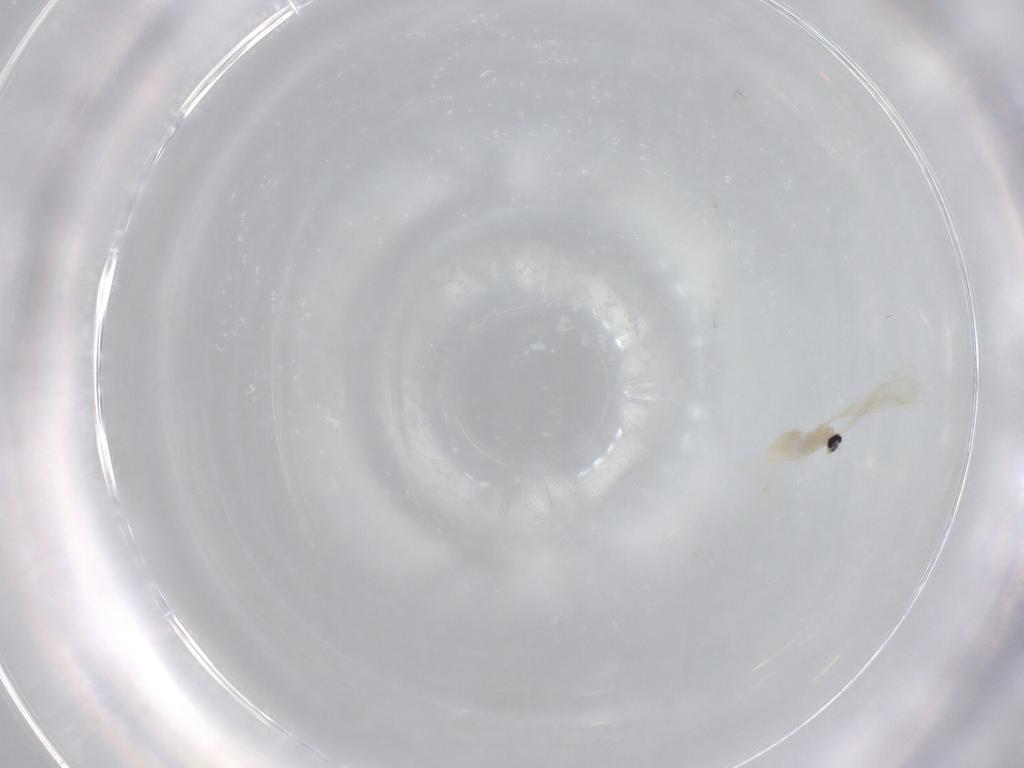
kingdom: Animalia
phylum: Arthropoda
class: Insecta
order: Diptera
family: Cecidomyiidae
